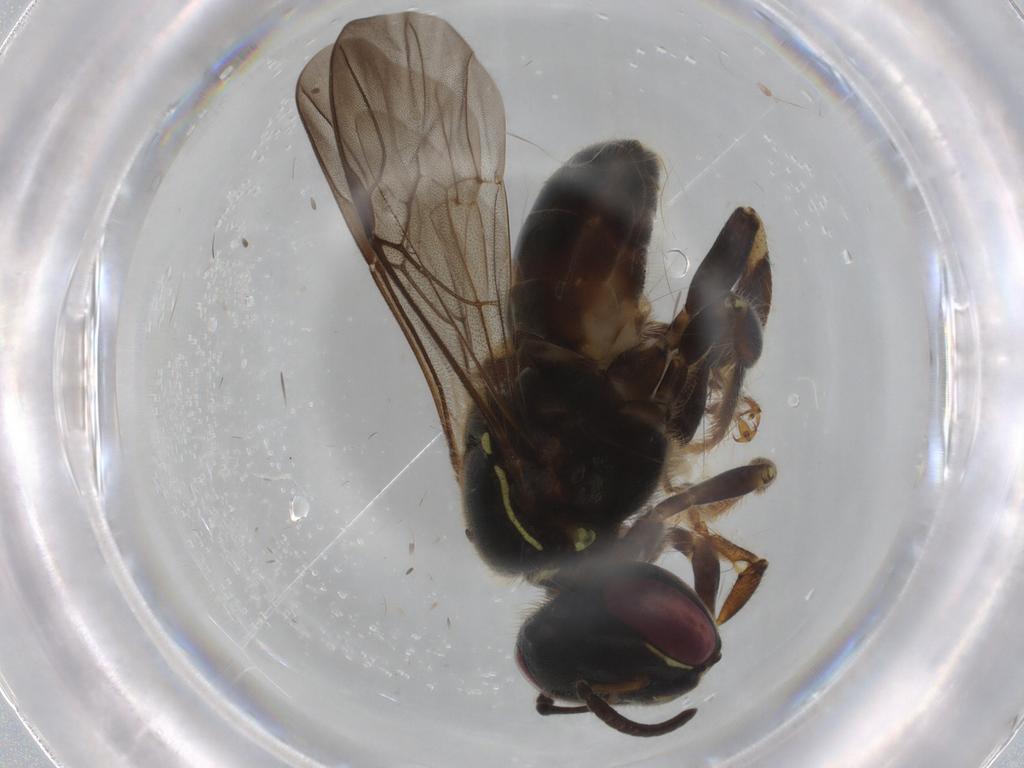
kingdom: Animalia
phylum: Arthropoda
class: Insecta
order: Hymenoptera
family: Apidae
